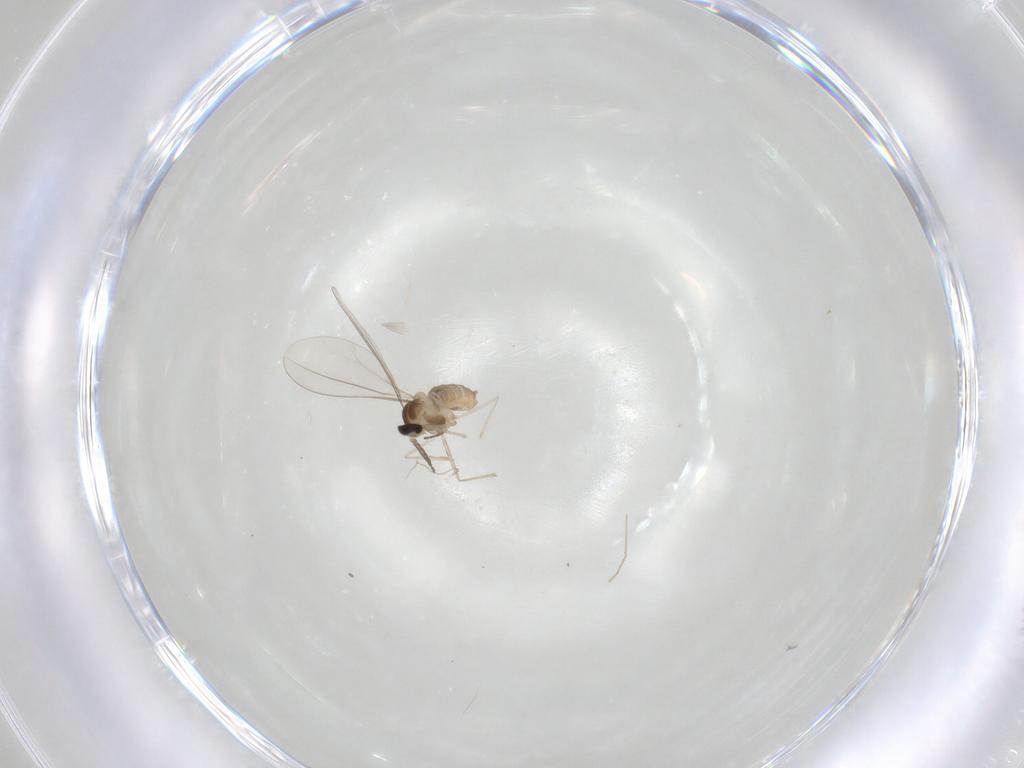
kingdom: Animalia
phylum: Arthropoda
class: Insecta
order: Diptera
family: Cecidomyiidae
